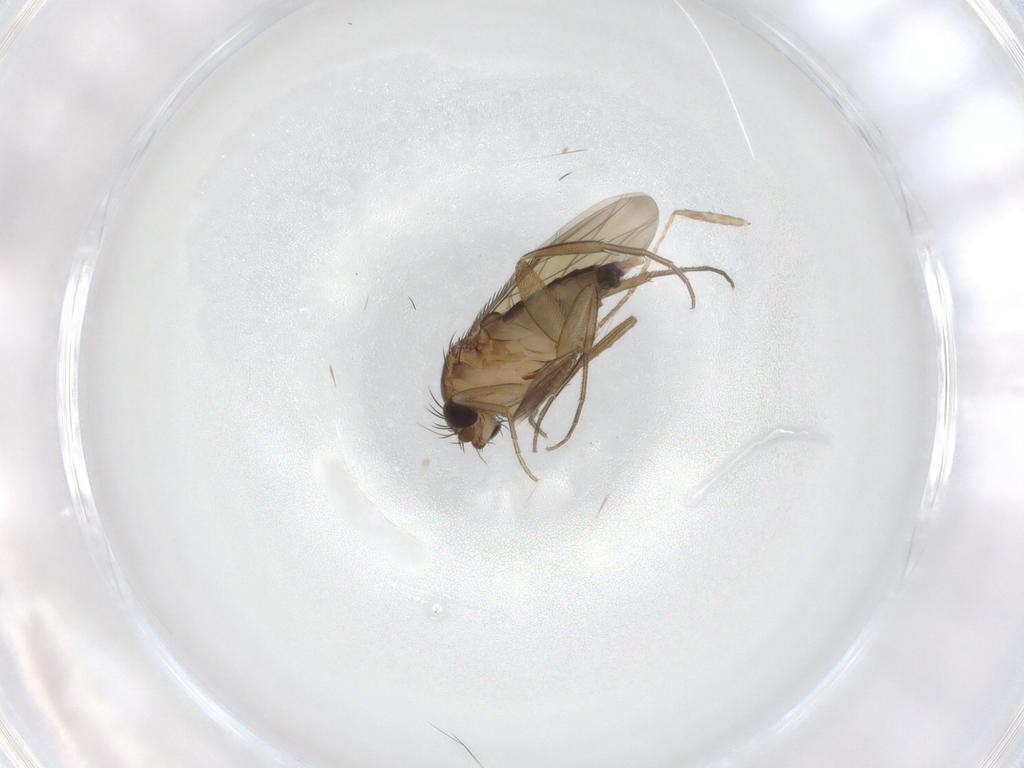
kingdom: Animalia
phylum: Arthropoda
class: Insecta
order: Diptera
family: Phoridae
